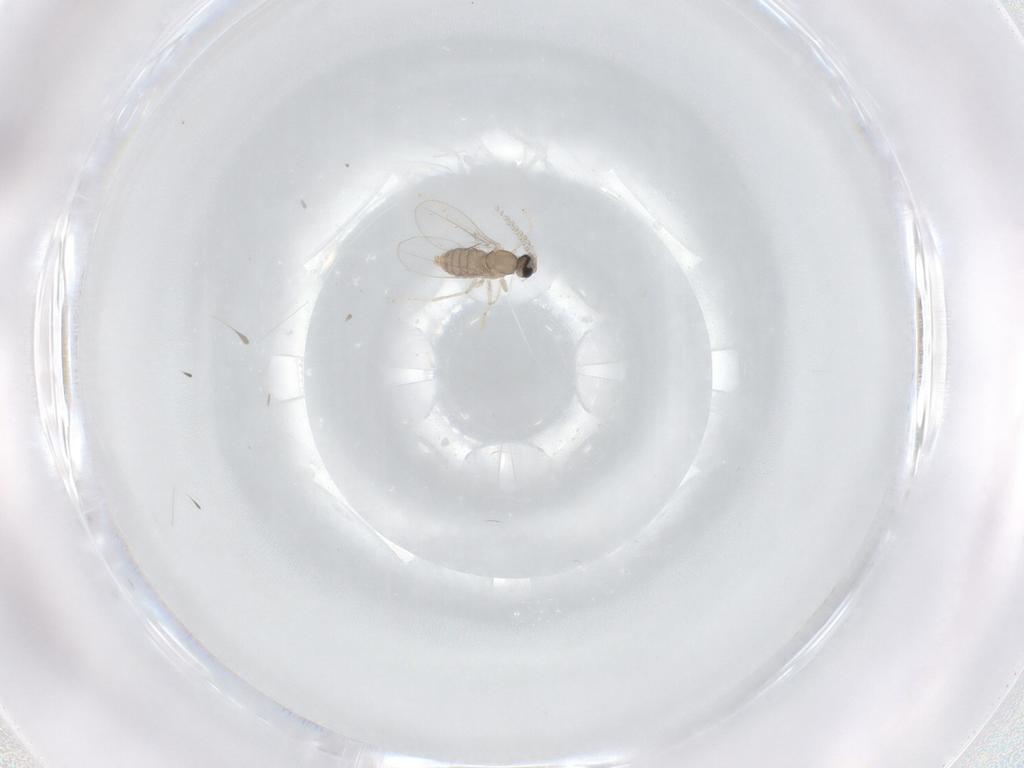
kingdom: Animalia
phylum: Arthropoda
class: Insecta
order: Diptera
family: Cecidomyiidae
